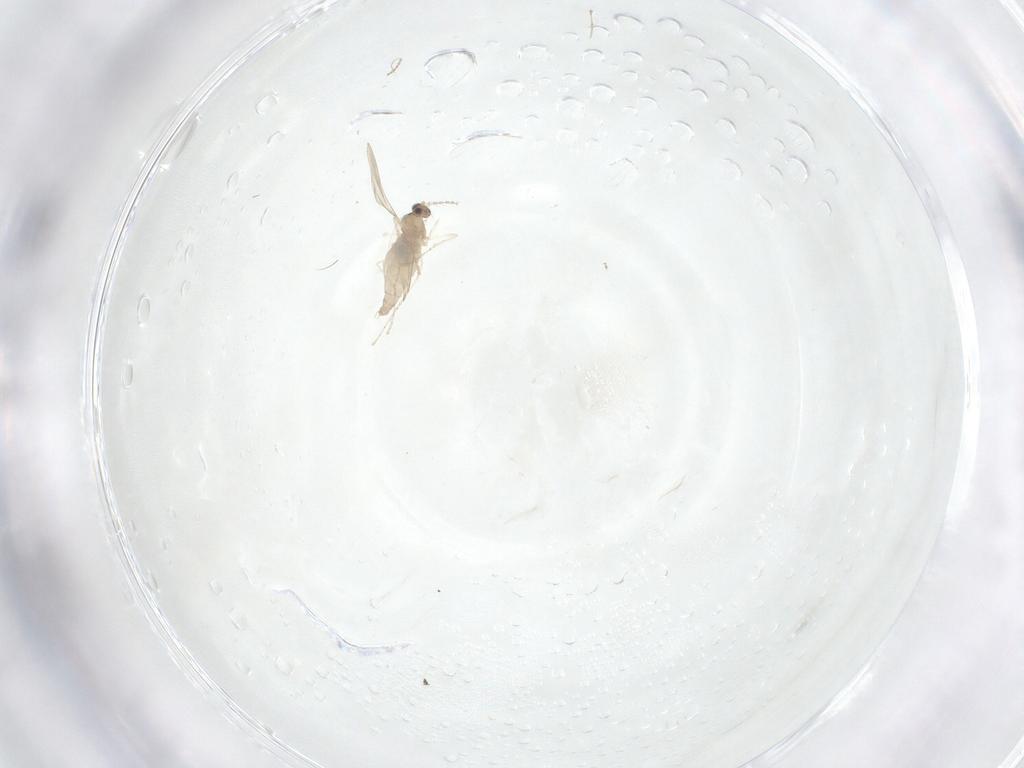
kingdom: Animalia
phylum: Arthropoda
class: Insecta
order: Diptera
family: Cecidomyiidae
